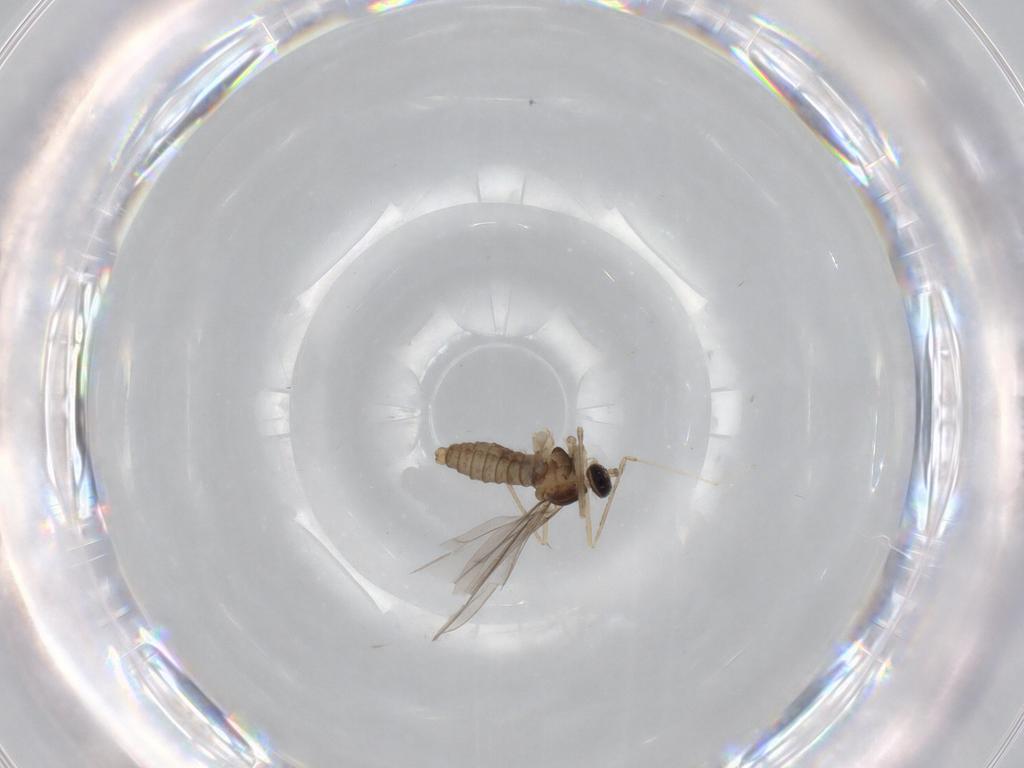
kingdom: Animalia
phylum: Arthropoda
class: Insecta
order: Diptera
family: Cecidomyiidae
